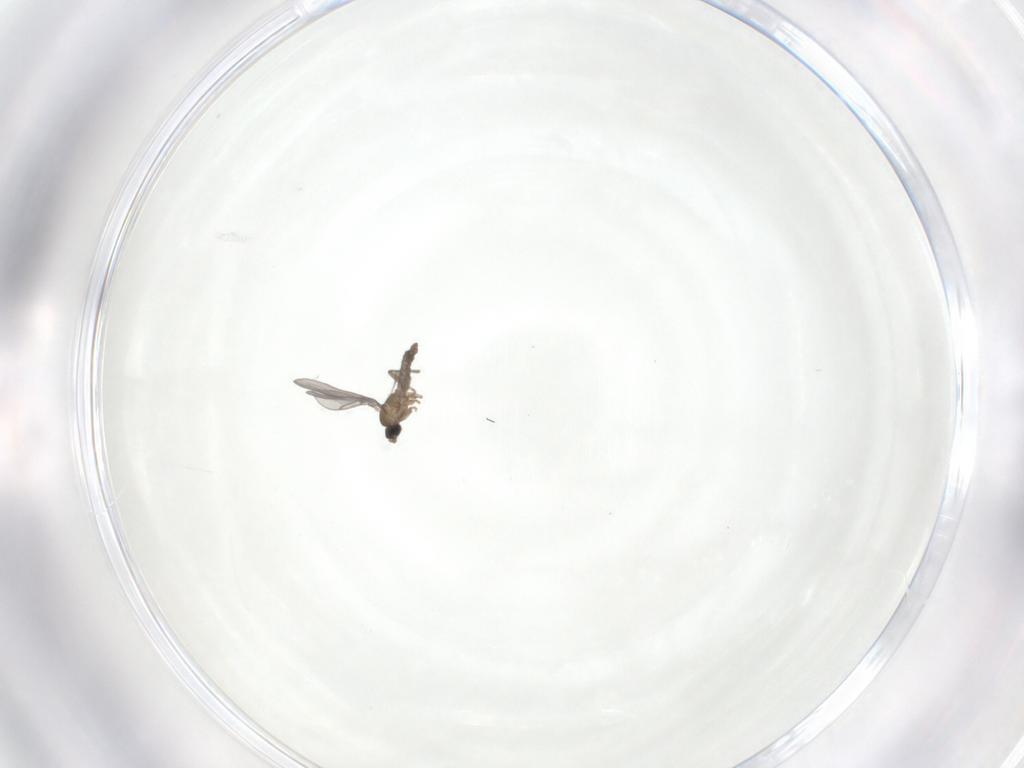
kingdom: Animalia
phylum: Arthropoda
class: Insecta
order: Diptera
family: Sciaridae
